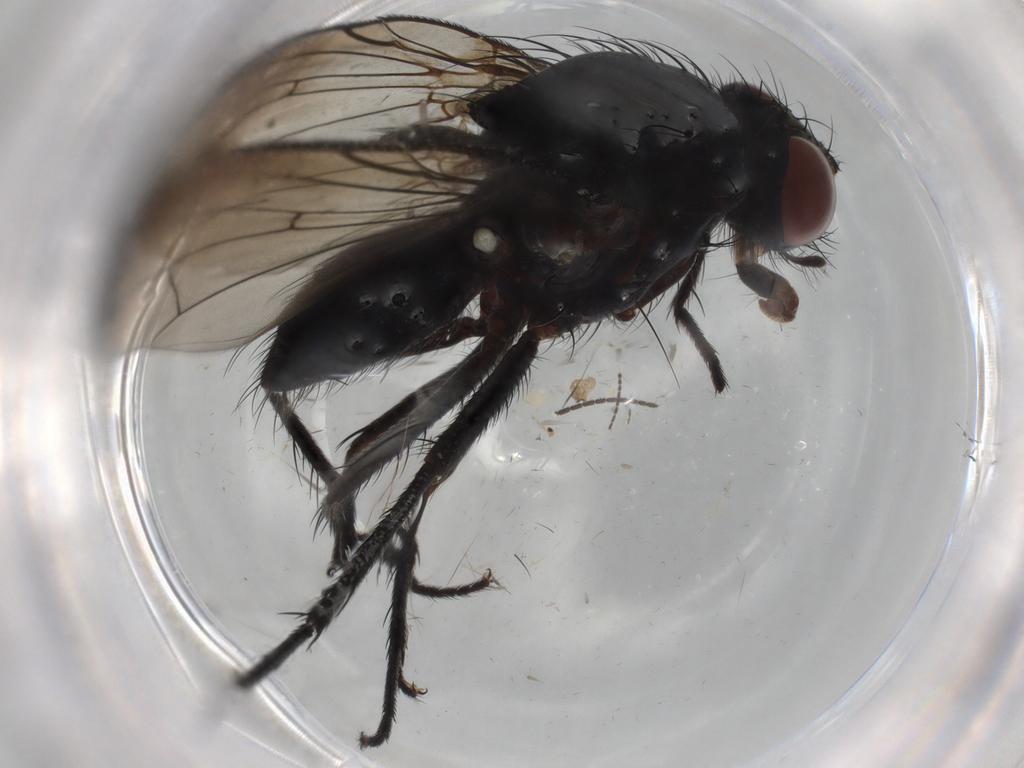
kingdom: Animalia
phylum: Arthropoda
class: Insecta
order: Diptera
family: Anthomyiidae
